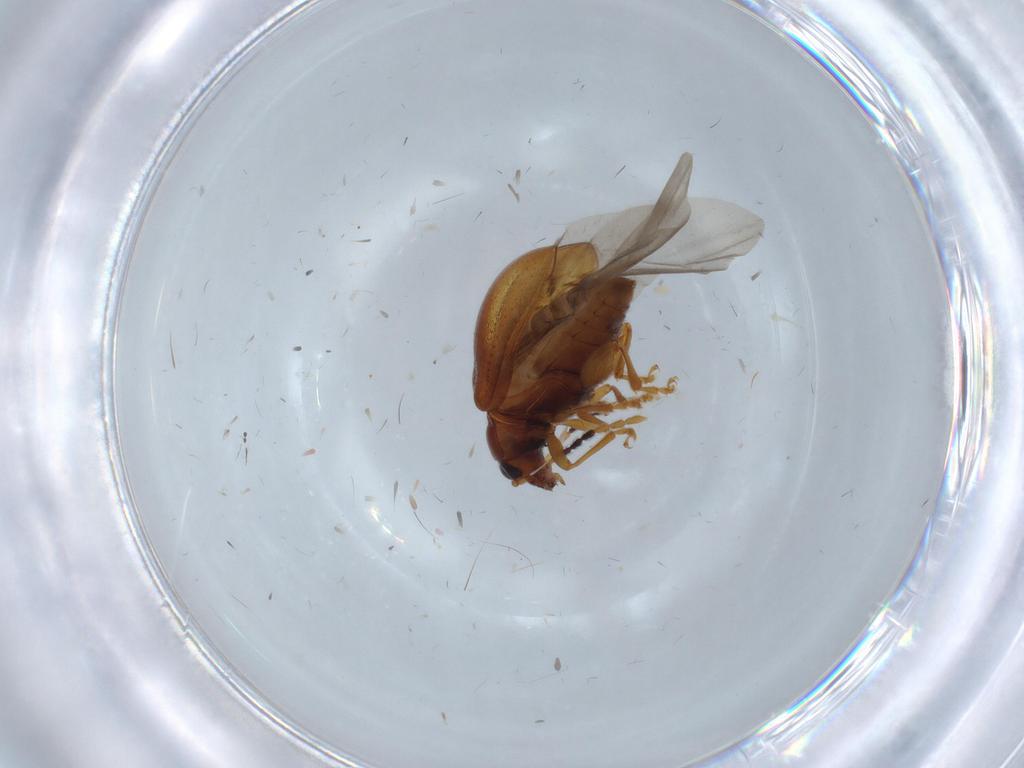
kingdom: Animalia
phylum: Arthropoda
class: Insecta
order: Coleoptera
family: Chrysomelidae
